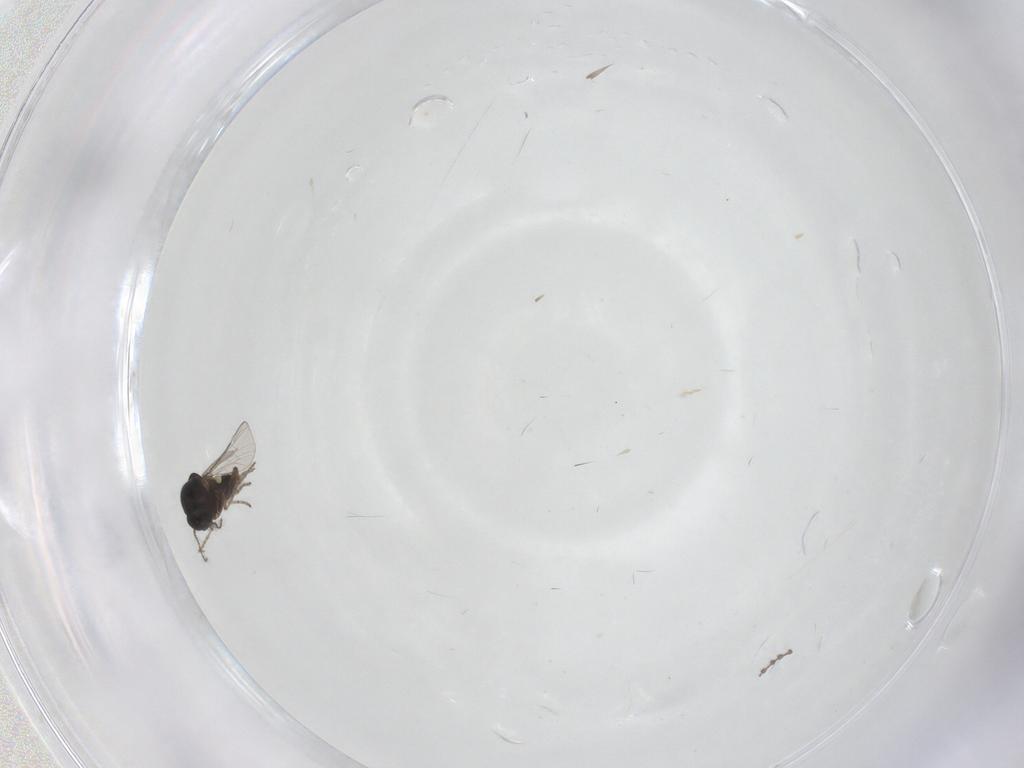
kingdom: Animalia
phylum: Arthropoda
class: Insecta
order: Diptera
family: Ceratopogonidae
